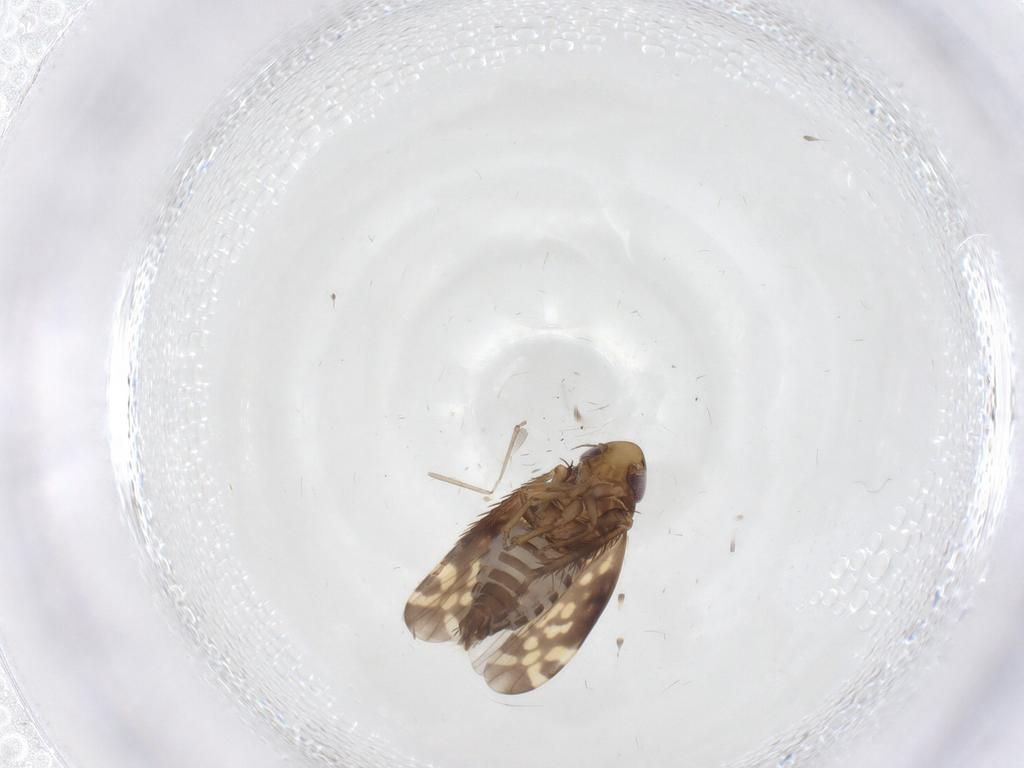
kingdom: Animalia
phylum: Arthropoda
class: Insecta
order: Hemiptera
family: Cicadellidae
